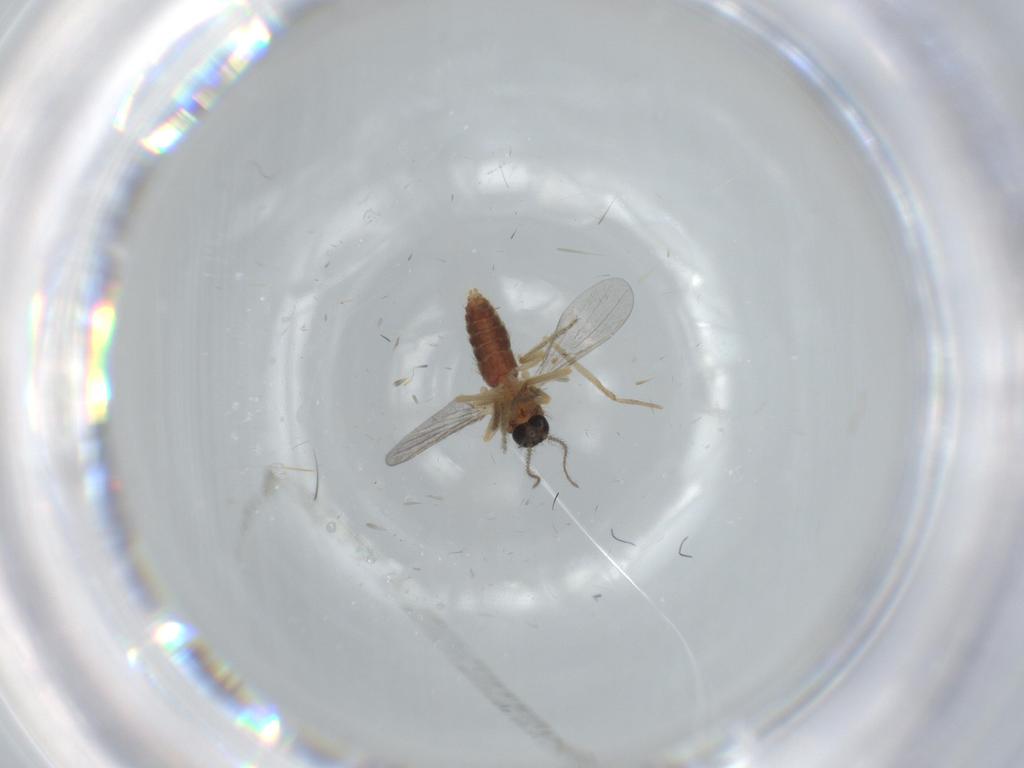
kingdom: Animalia
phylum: Arthropoda
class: Insecta
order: Diptera
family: Ceratopogonidae
